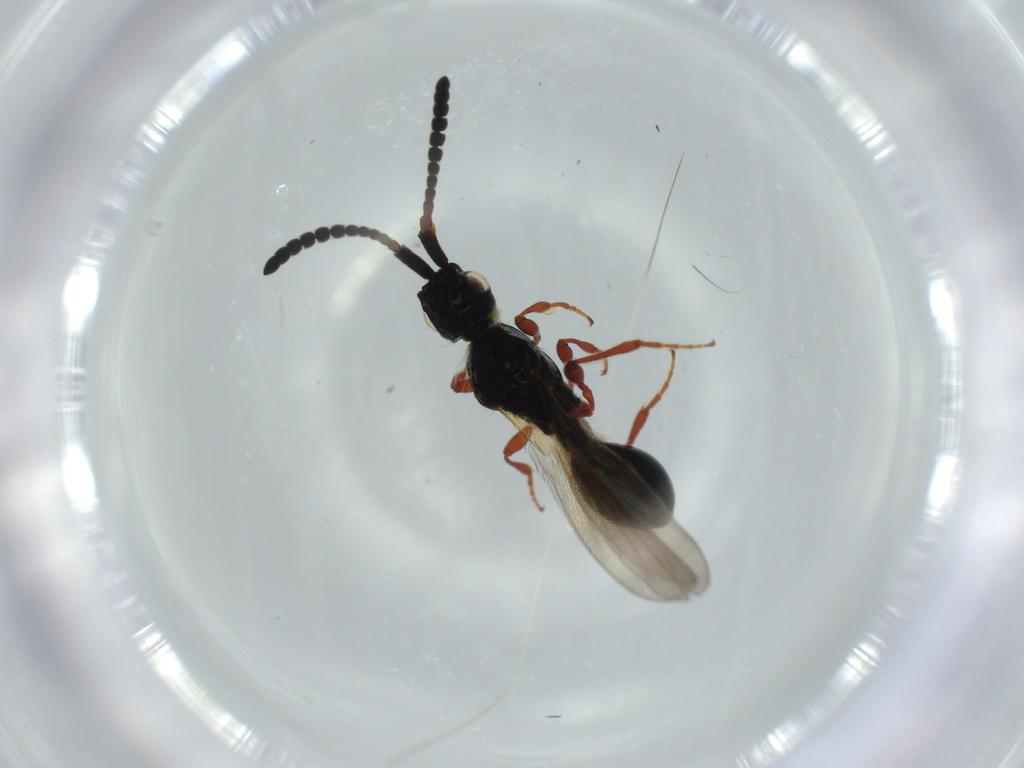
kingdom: Animalia
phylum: Arthropoda
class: Insecta
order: Hymenoptera
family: Diapriidae
